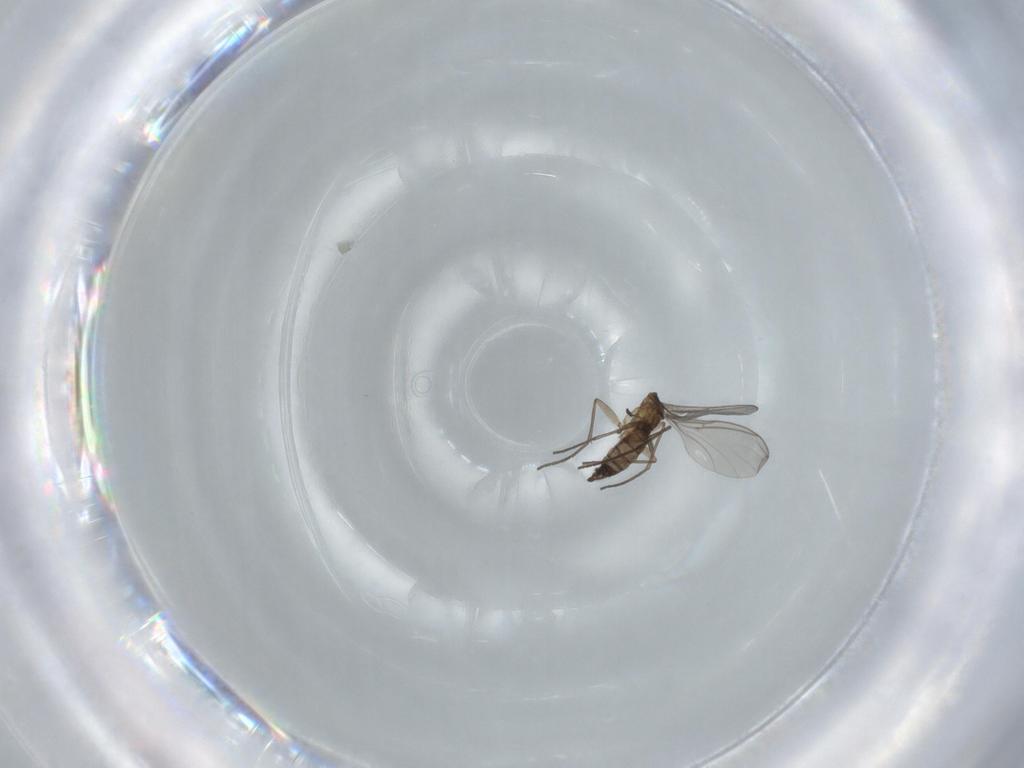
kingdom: Animalia
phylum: Arthropoda
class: Insecta
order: Diptera
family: Sciaridae
